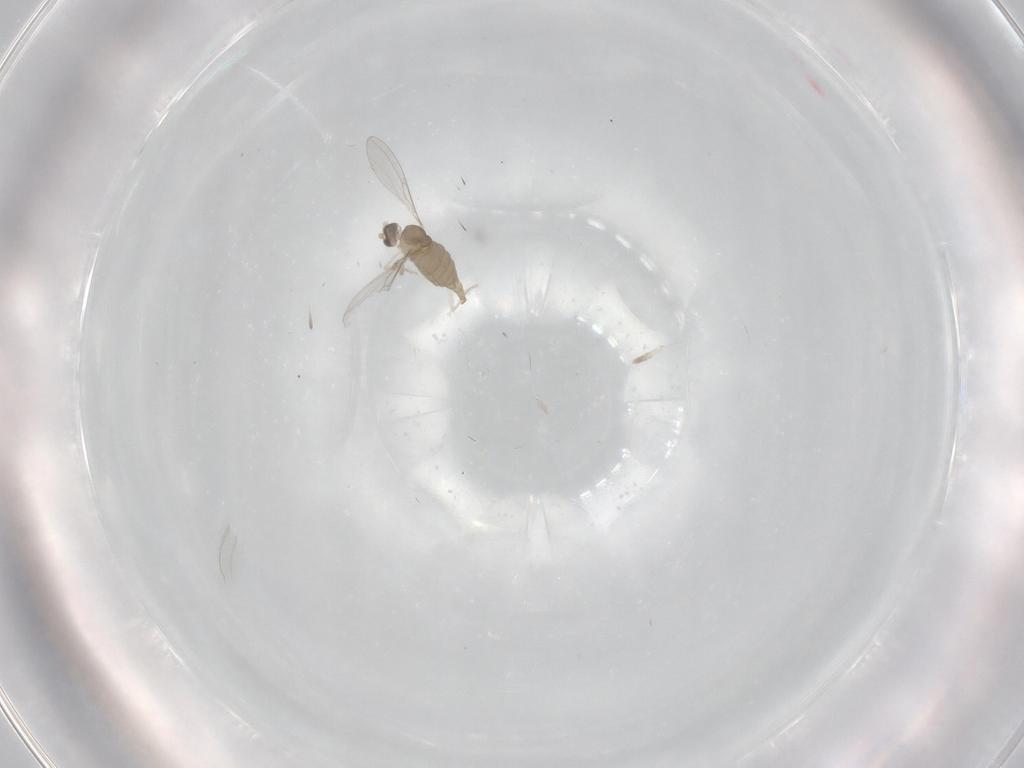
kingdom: Animalia
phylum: Arthropoda
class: Insecta
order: Diptera
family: Cecidomyiidae
